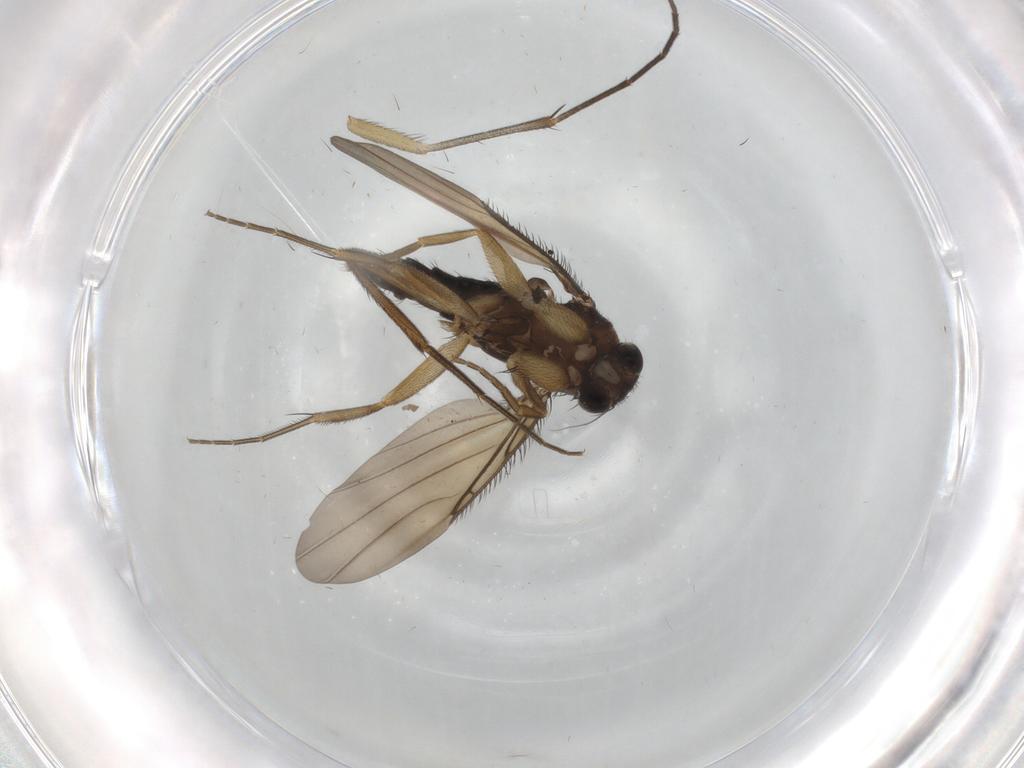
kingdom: Animalia
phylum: Arthropoda
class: Insecta
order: Diptera
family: Phoridae
